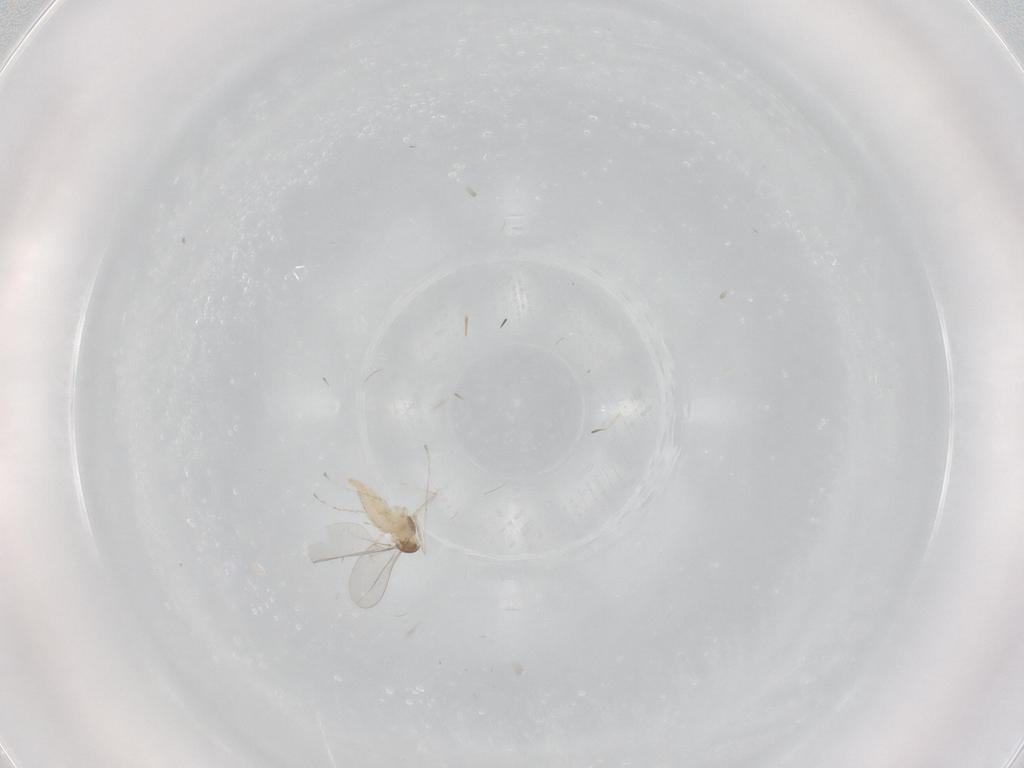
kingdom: Animalia
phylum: Arthropoda
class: Insecta
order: Diptera
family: Cecidomyiidae
